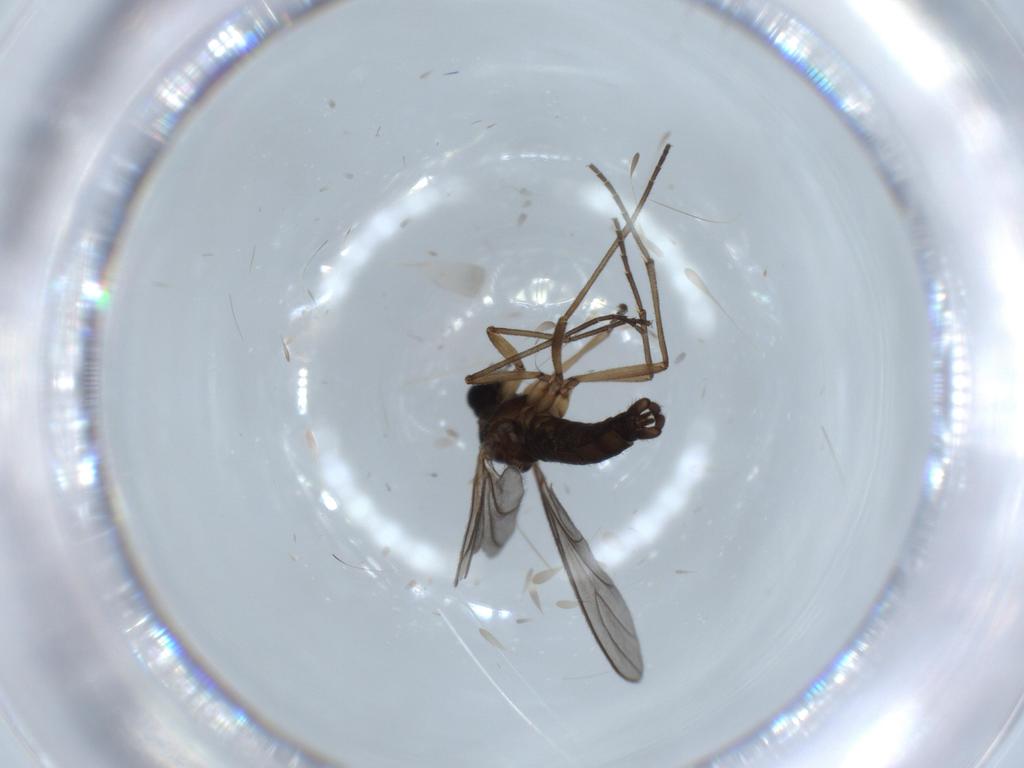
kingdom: Animalia
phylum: Arthropoda
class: Insecta
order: Diptera
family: Sciaridae
